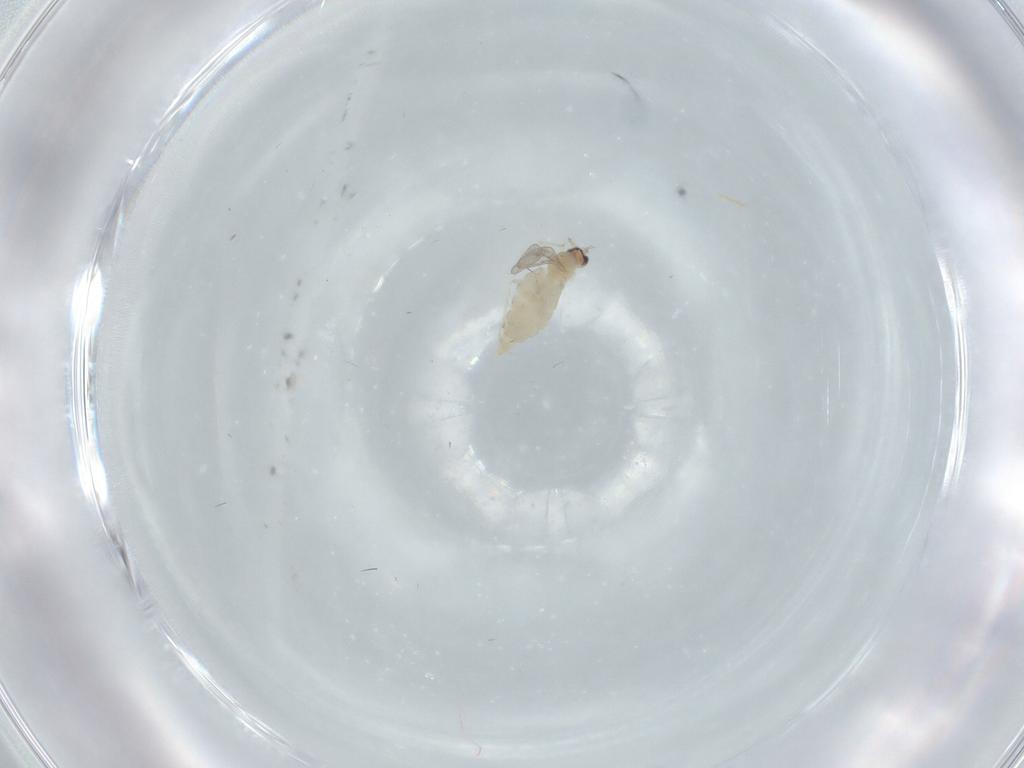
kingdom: Animalia
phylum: Arthropoda
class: Insecta
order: Diptera
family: Cecidomyiidae
